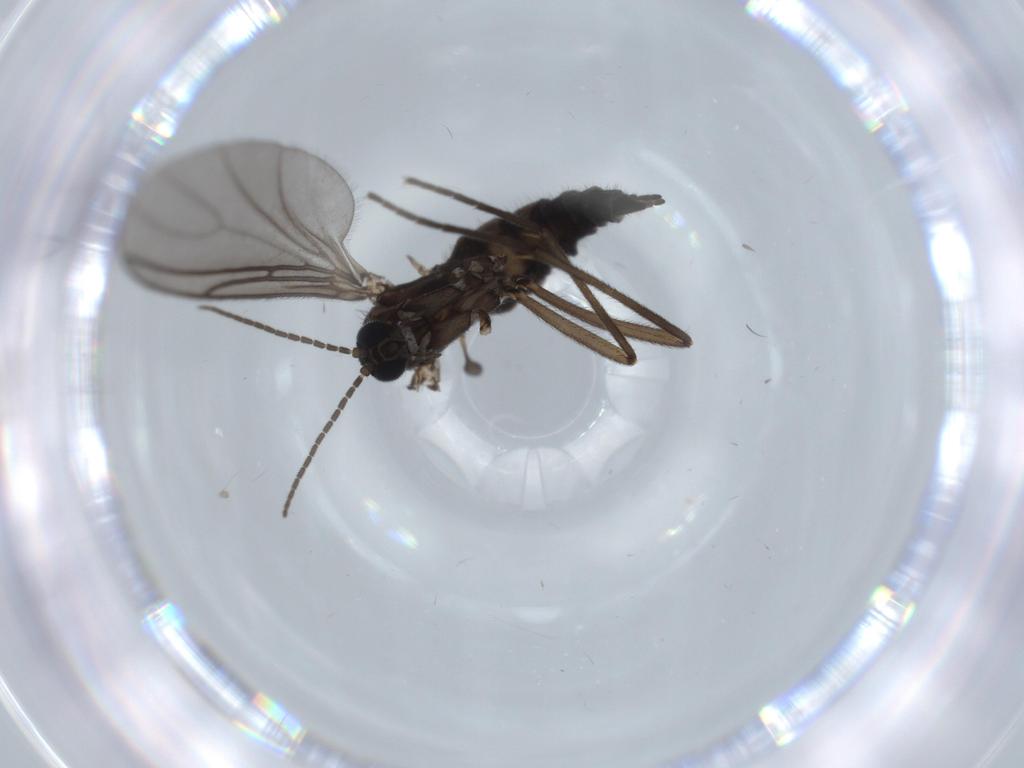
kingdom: Animalia
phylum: Arthropoda
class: Insecta
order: Diptera
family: Sciaridae
